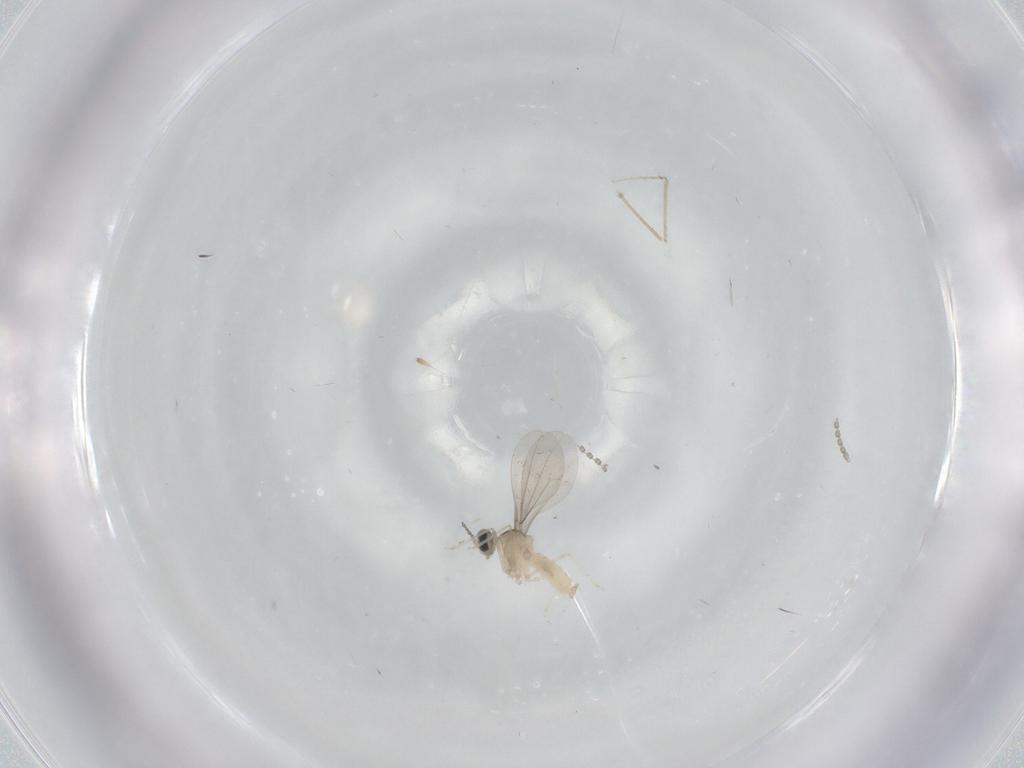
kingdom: Animalia
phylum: Arthropoda
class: Insecta
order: Diptera
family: Cecidomyiidae
